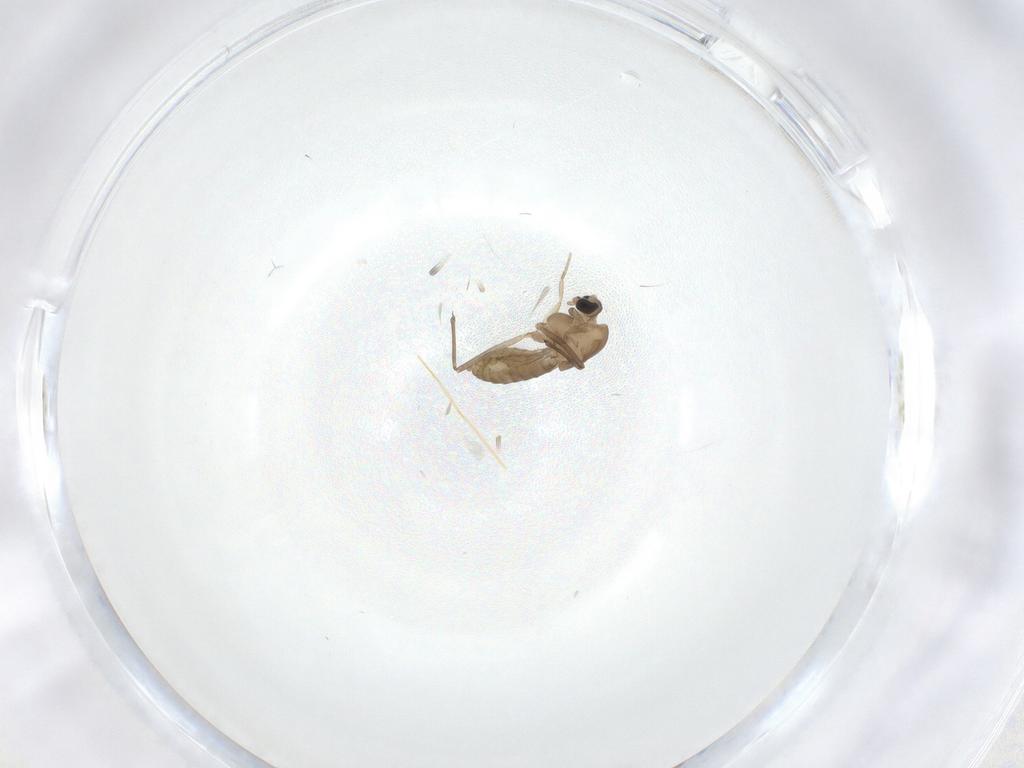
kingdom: Animalia
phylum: Arthropoda
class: Insecta
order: Diptera
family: Chironomidae
